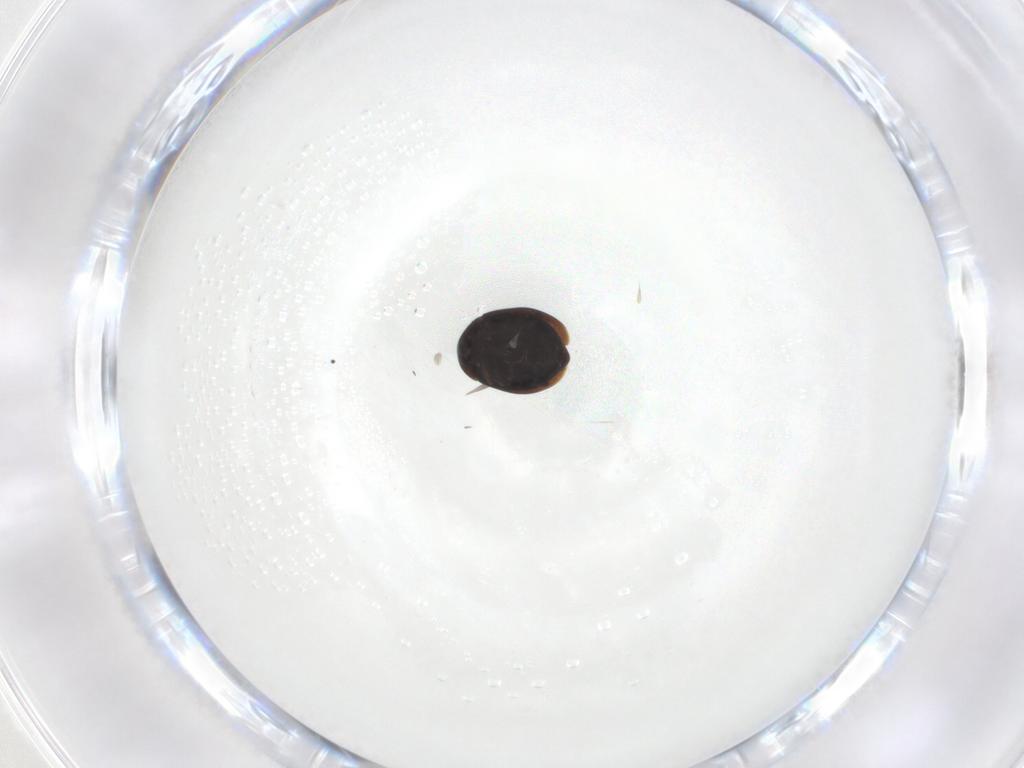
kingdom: Animalia
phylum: Arthropoda
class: Insecta
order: Coleoptera
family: Corylophidae
